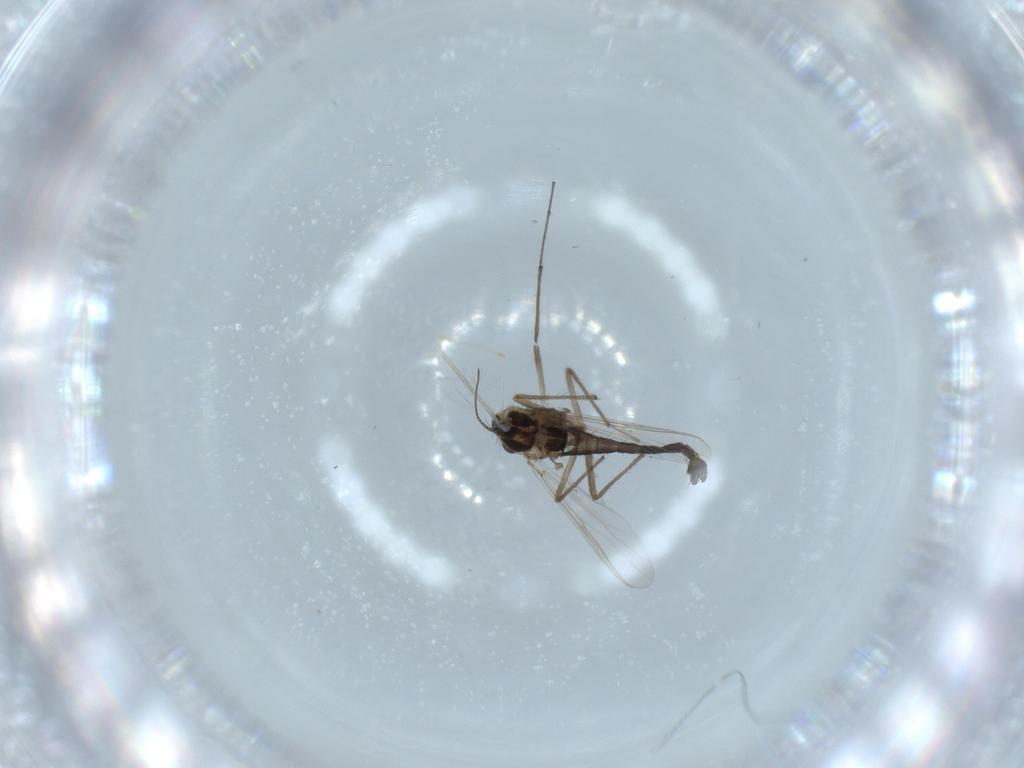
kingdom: Animalia
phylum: Arthropoda
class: Insecta
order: Diptera
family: Chironomidae
